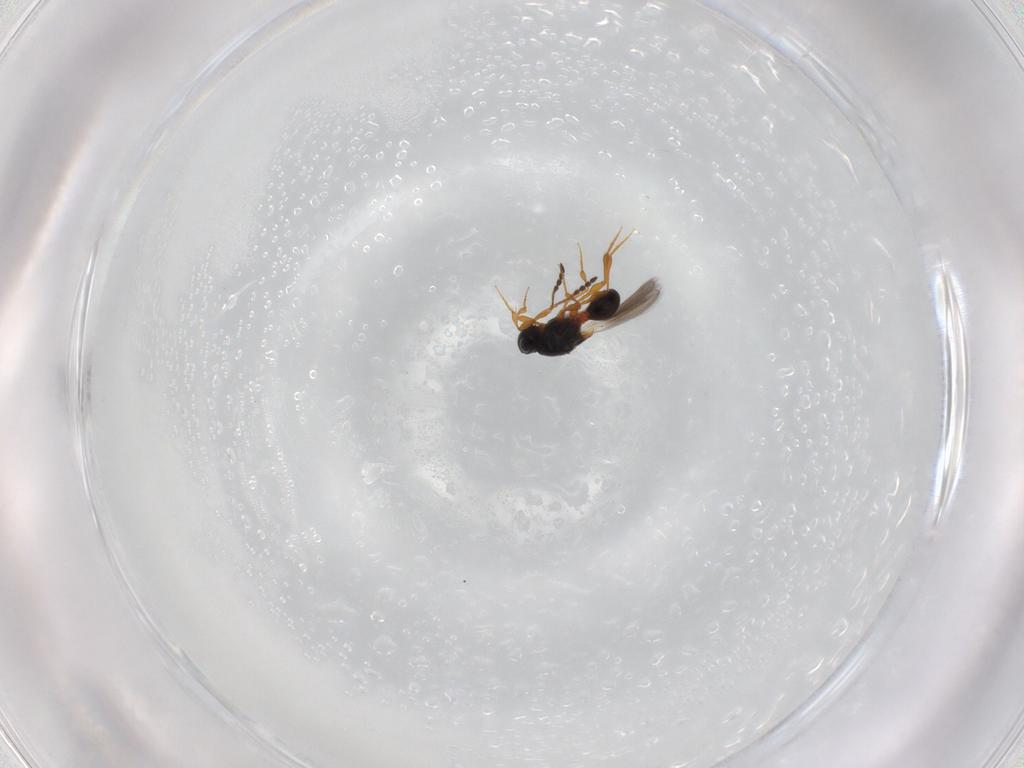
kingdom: Animalia
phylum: Arthropoda
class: Insecta
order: Hymenoptera
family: Platygastridae
